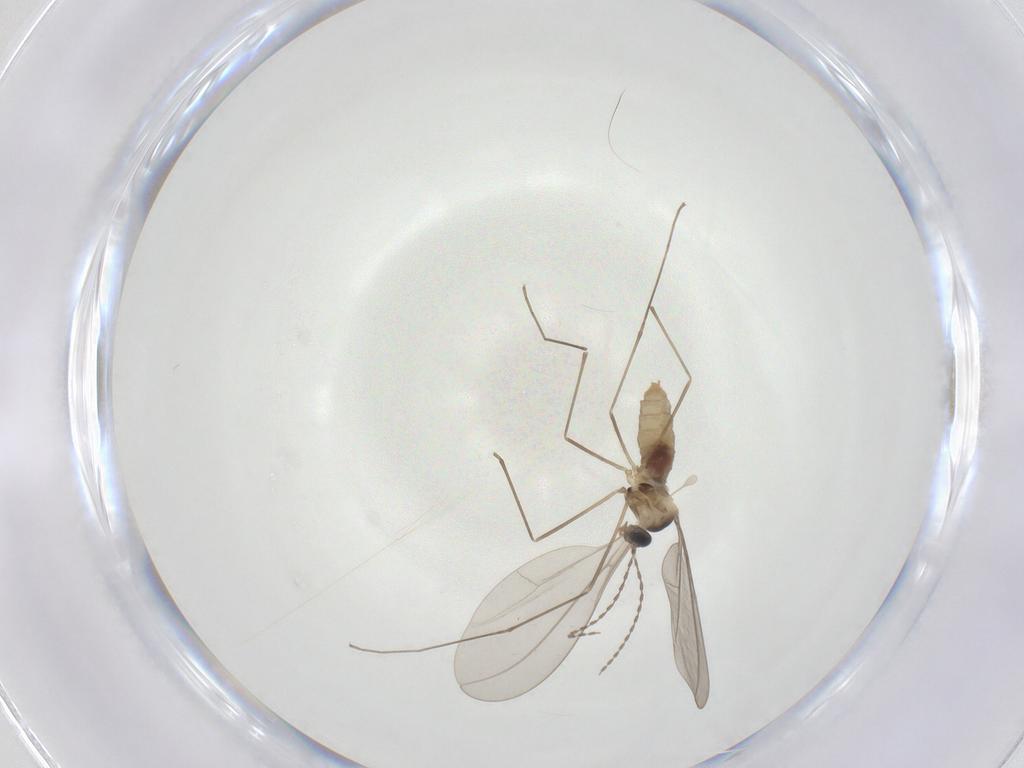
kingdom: Animalia
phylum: Arthropoda
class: Insecta
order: Diptera
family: Cecidomyiidae
